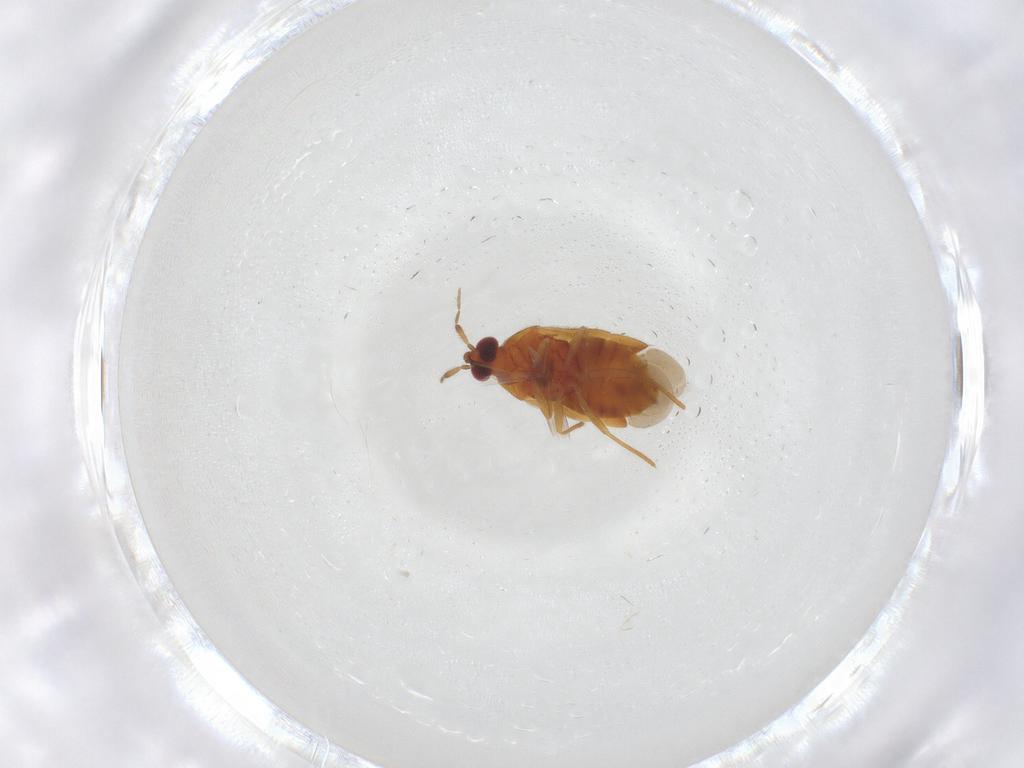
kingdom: Animalia
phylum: Arthropoda
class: Insecta
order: Hemiptera
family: Anthocoridae
